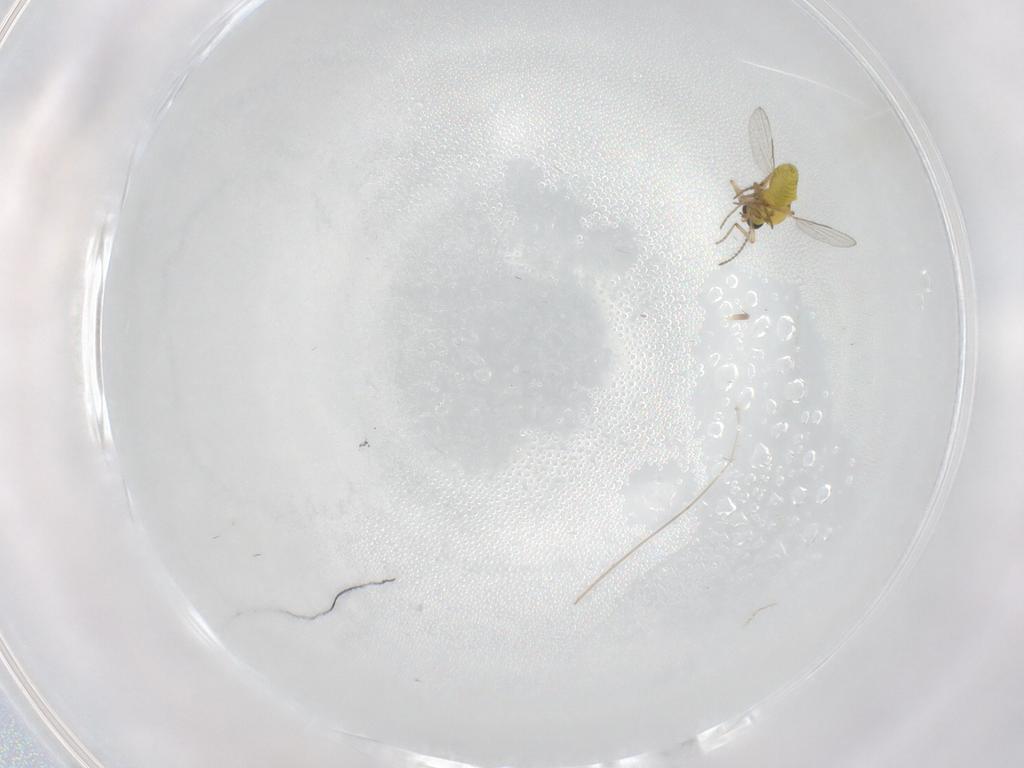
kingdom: Animalia
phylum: Arthropoda
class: Insecta
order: Diptera
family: Ceratopogonidae
